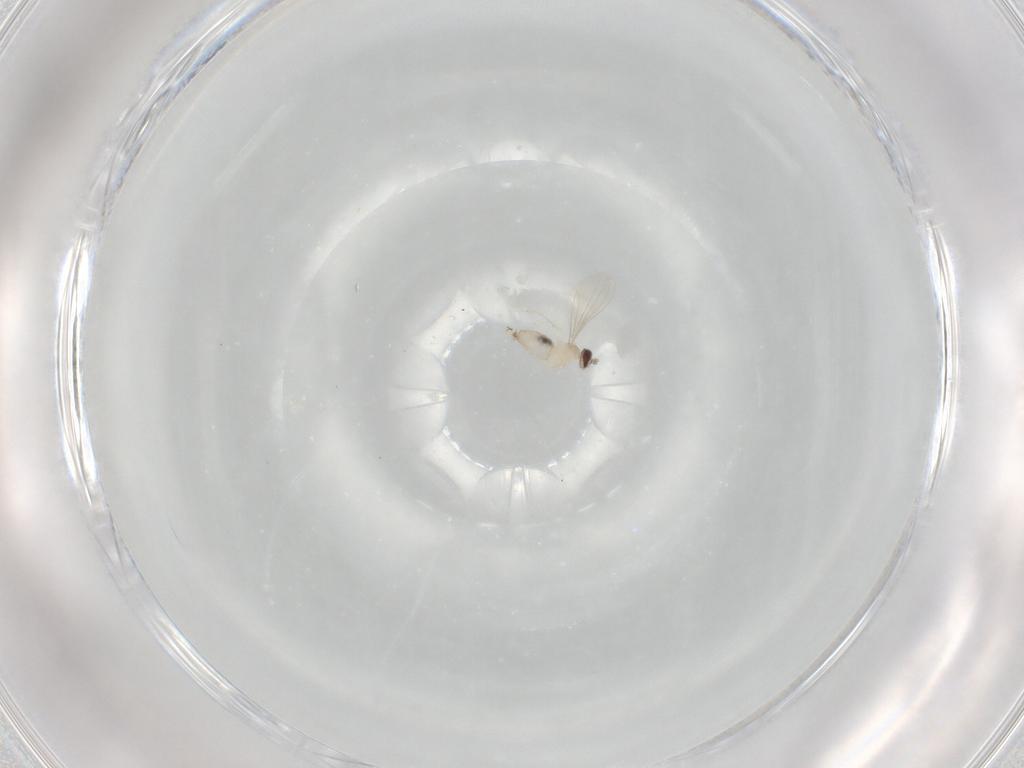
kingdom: Animalia
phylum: Arthropoda
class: Insecta
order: Diptera
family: Cecidomyiidae
